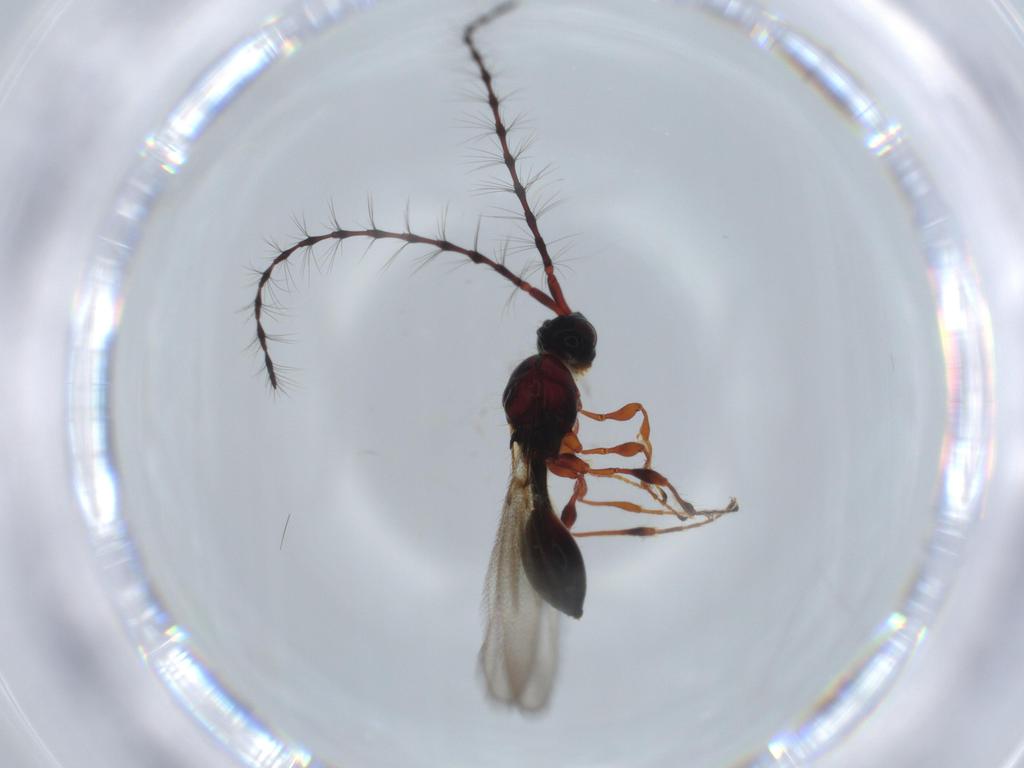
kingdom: Animalia
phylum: Arthropoda
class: Insecta
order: Hymenoptera
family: Diapriidae
